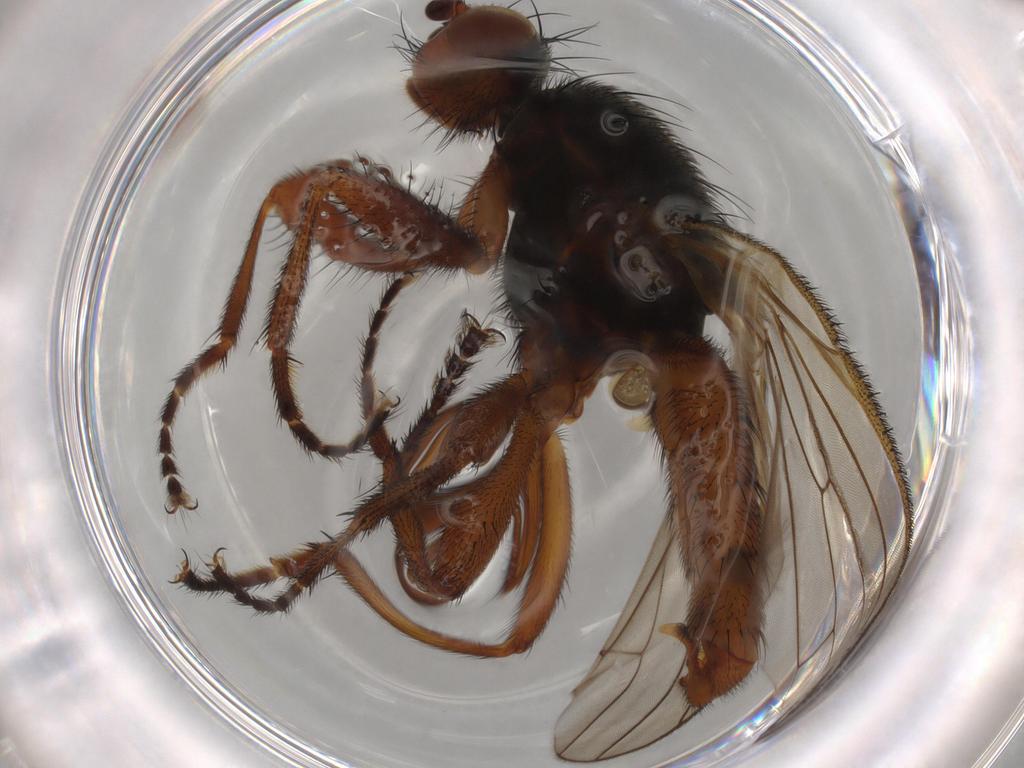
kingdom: Animalia
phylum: Arthropoda
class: Insecta
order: Diptera
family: Heleomyzidae
